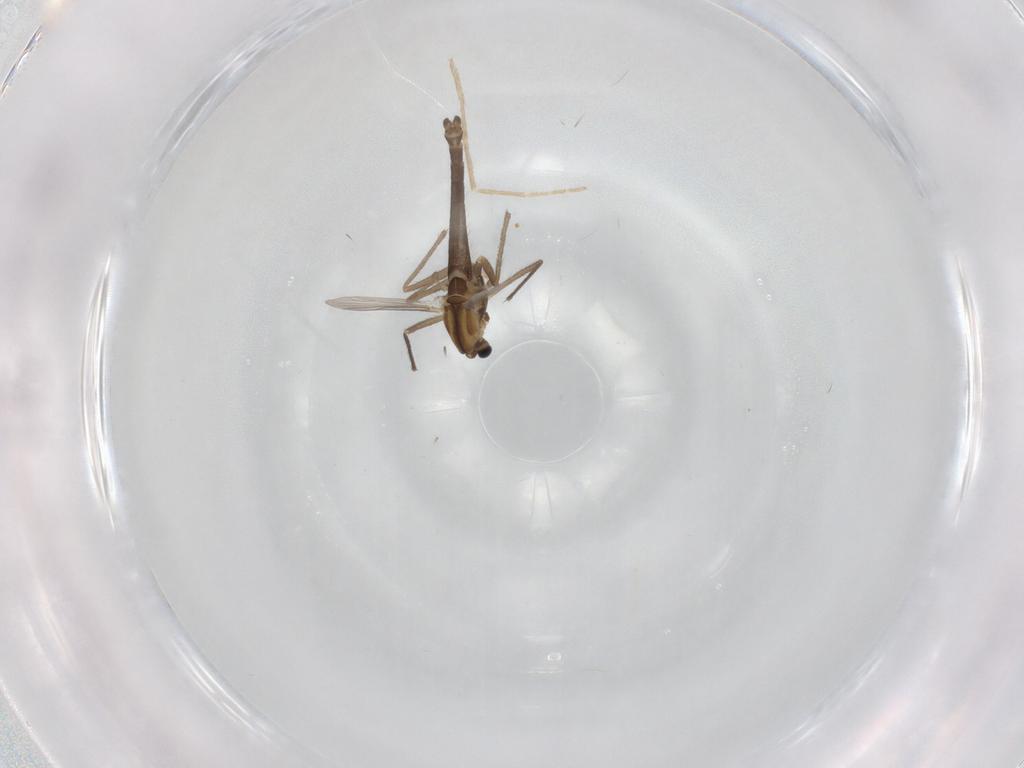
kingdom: Animalia
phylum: Arthropoda
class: Insecta
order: Diptera
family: Chironomidae
